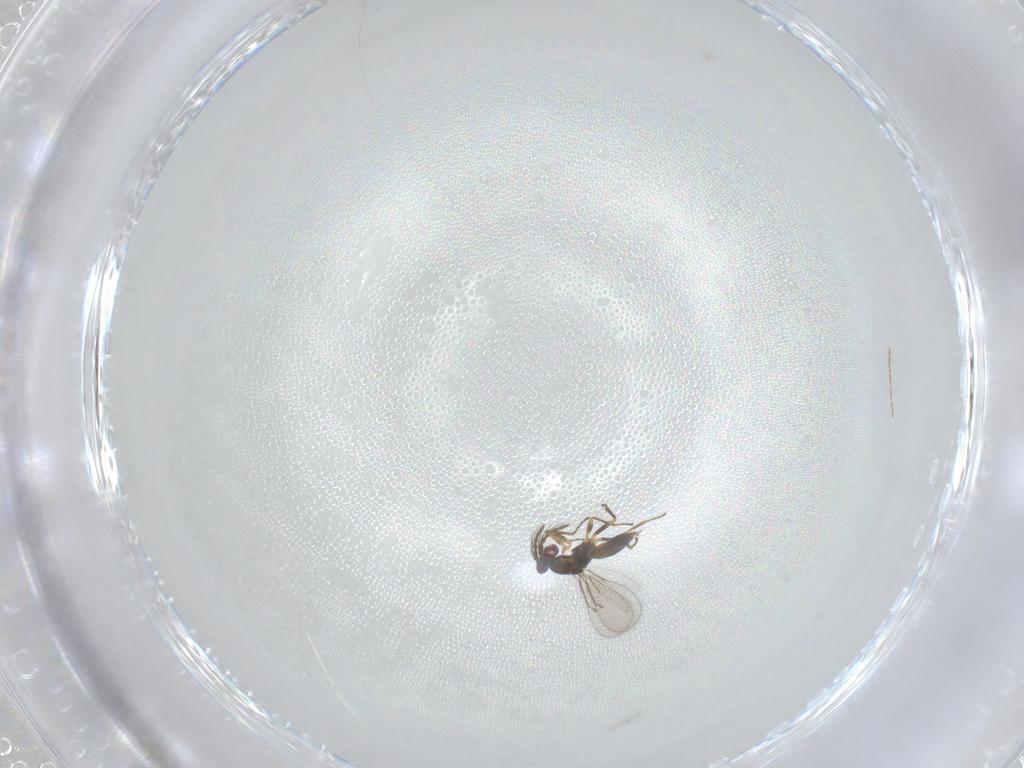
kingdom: Animalia
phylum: Arthropoda
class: Insecta
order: Hymenoptera
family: Eulophidae
